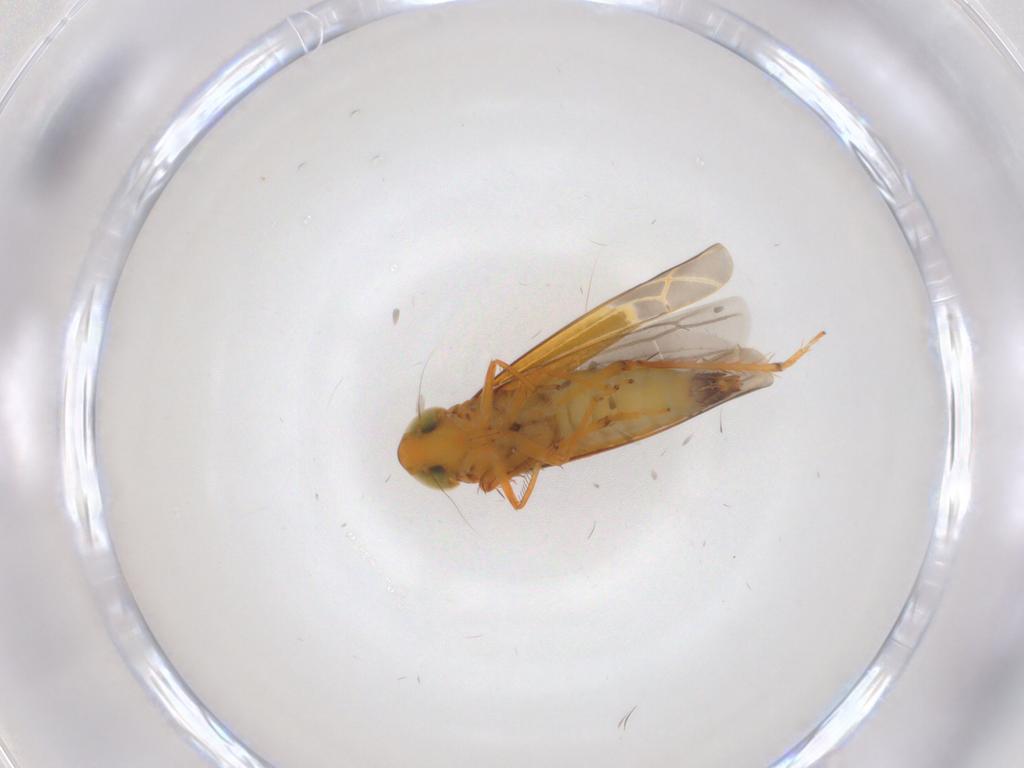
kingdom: Animalia
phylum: Arthropoda
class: Insecta
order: Hemiptera
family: Cicadellidae
